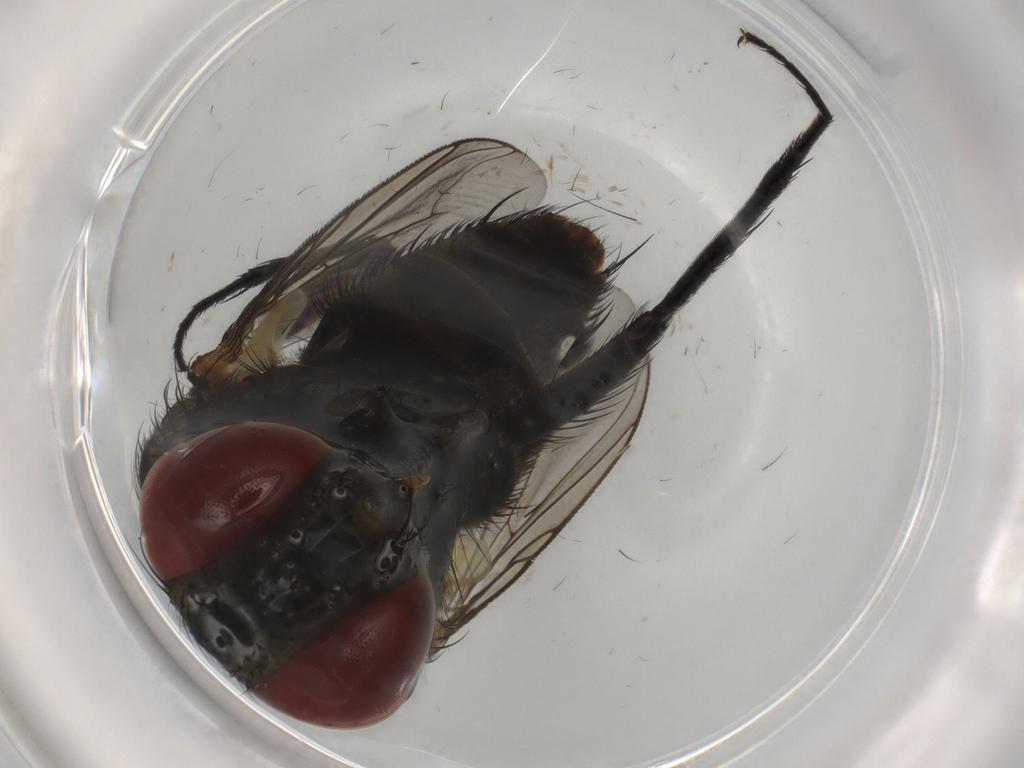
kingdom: Animalia
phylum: Arthropoda
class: Insecta
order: Diptera
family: Sarcophagidae
